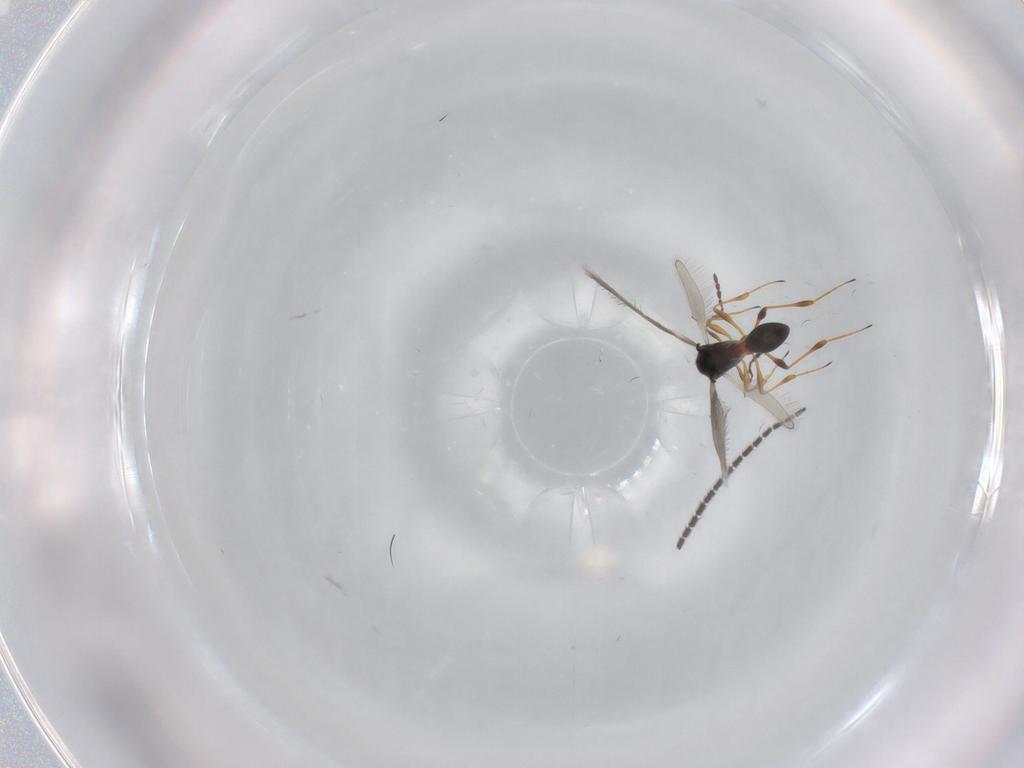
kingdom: Animalia
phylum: Arthropoda
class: Insecta
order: Hymenoptera
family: Platygastridae
